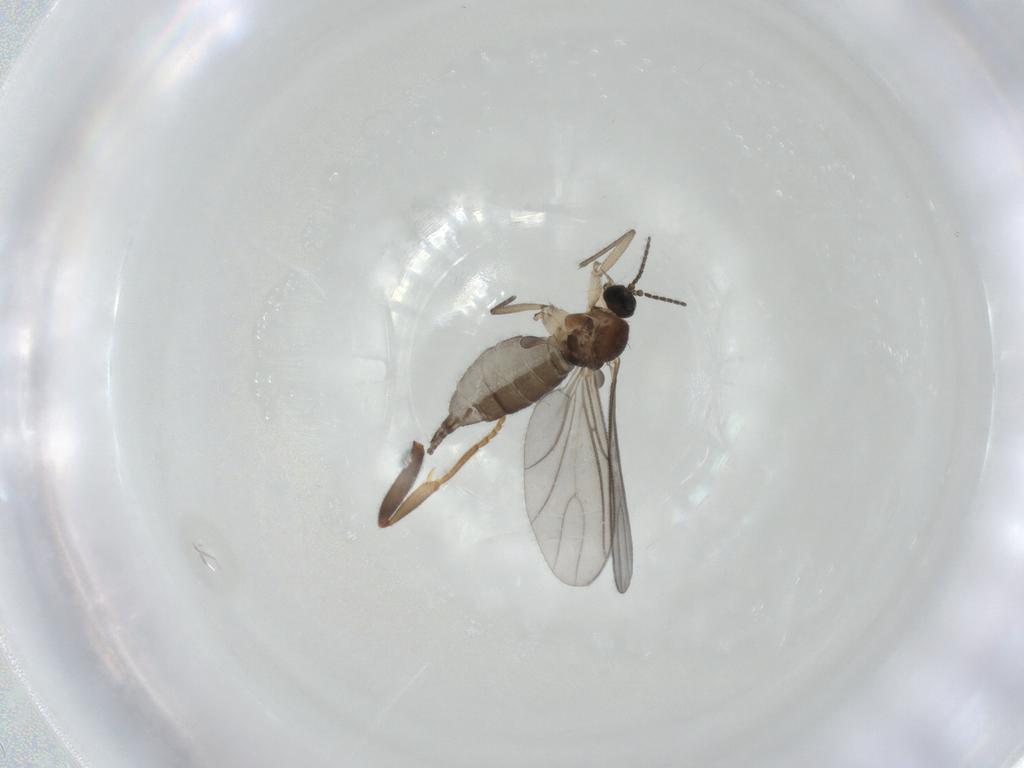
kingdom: Animalia
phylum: Arthropoda
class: Insecta
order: Diptera
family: Sciaridae
